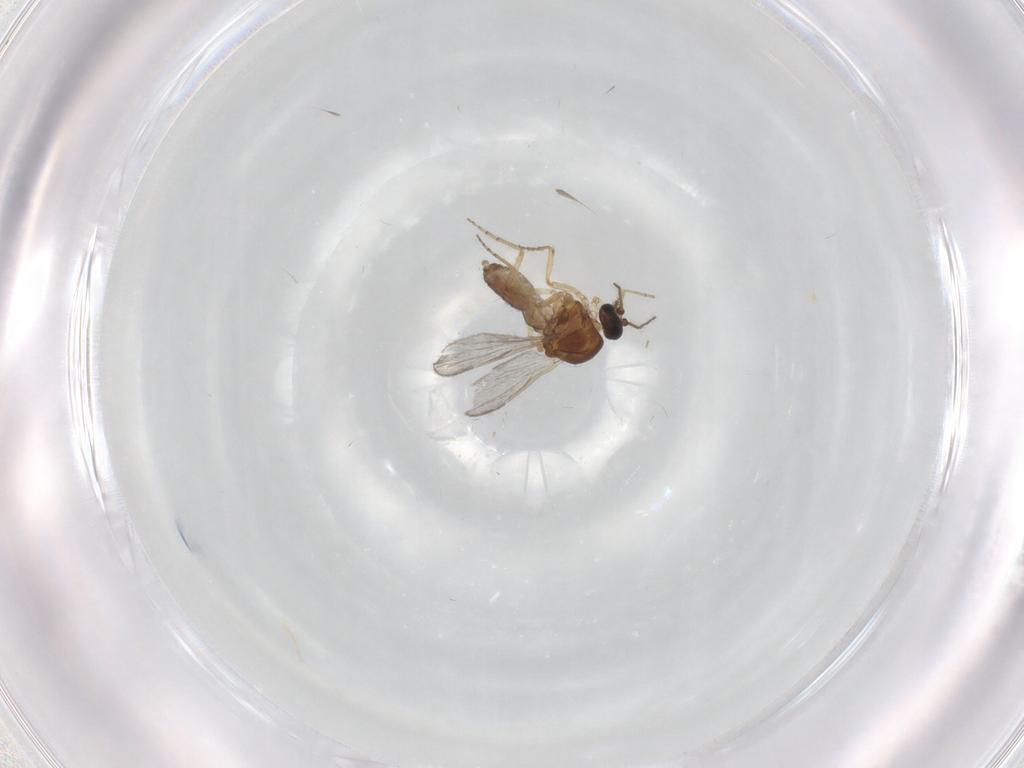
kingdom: Animalia
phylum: Arthropoda
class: Insecta
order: Diptera
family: Ceratopogonidae
